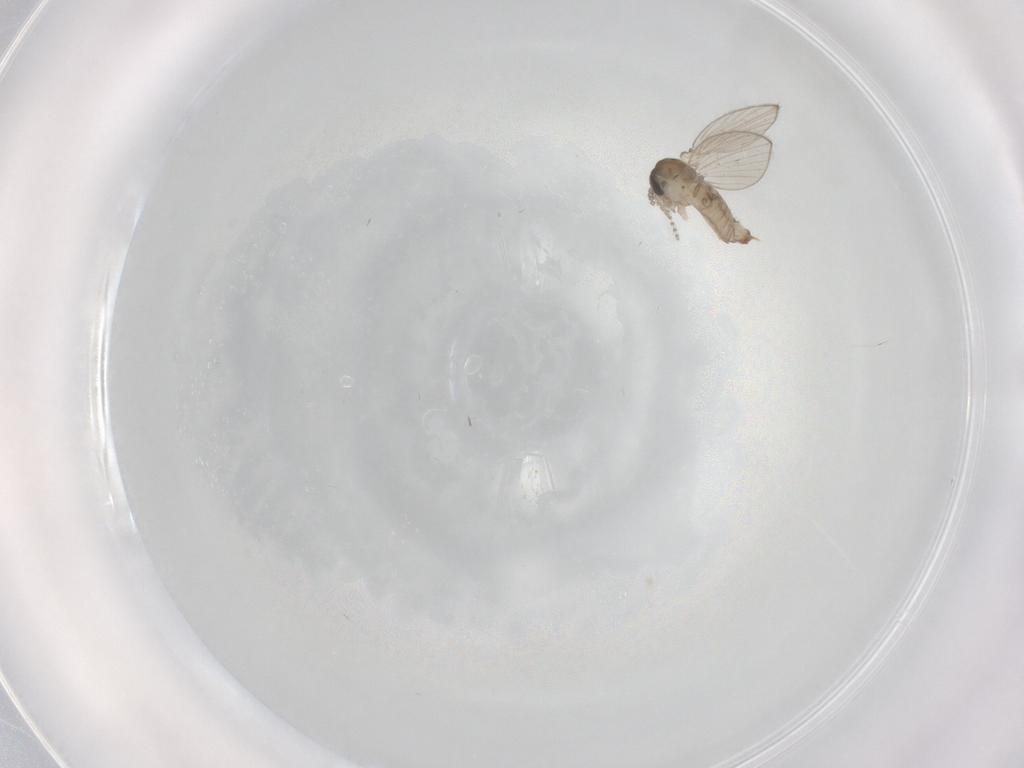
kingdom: Animalia
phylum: Arthropoda
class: Insecta
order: Diptera
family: Psychodidae
